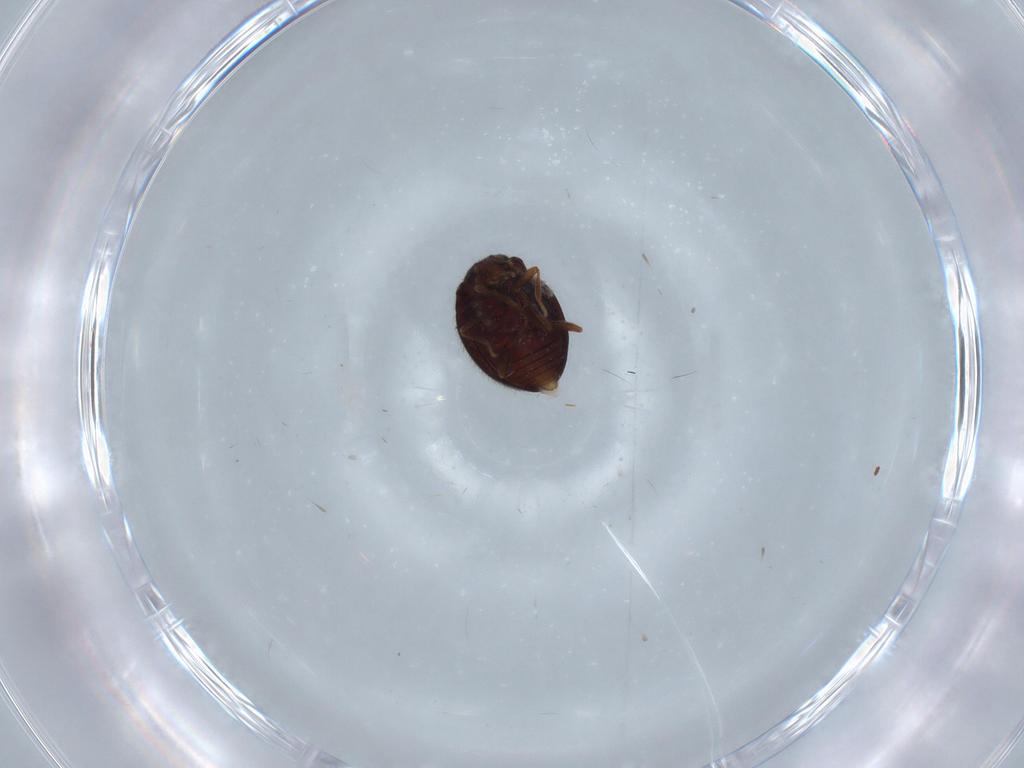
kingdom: Animalia
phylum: Arthropoda
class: Insecta
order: Coleoptera
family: Anamorphidae
